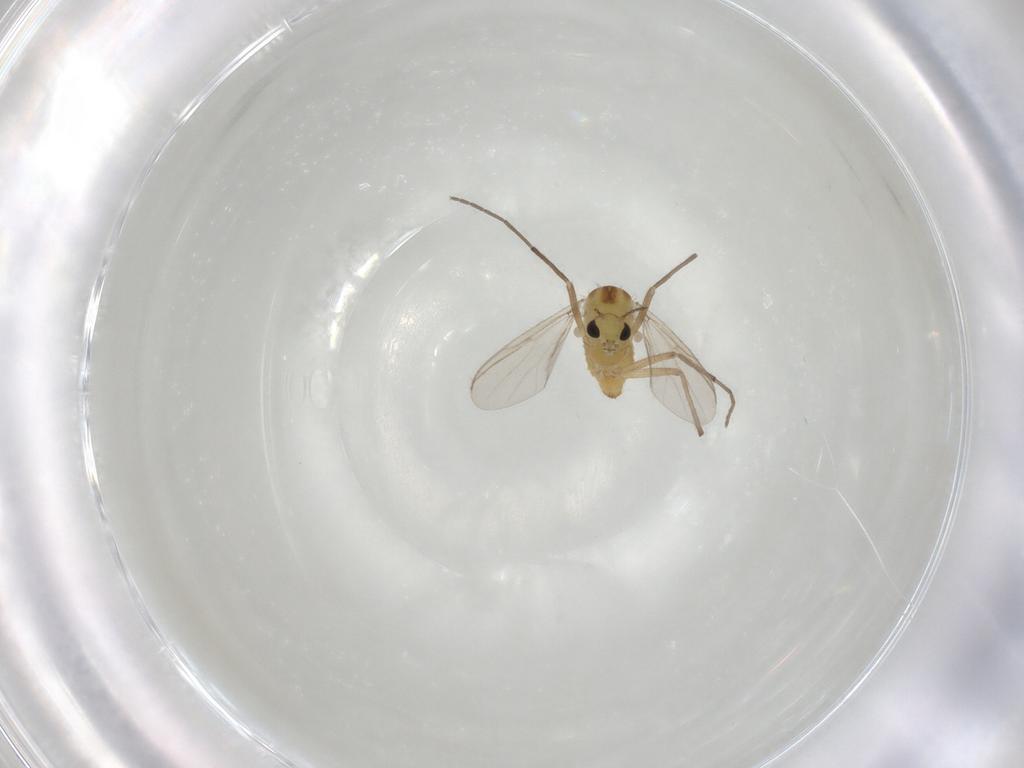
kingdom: Animalia
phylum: Arthropoda
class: Insecta
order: Diptera
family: Chironomidae
